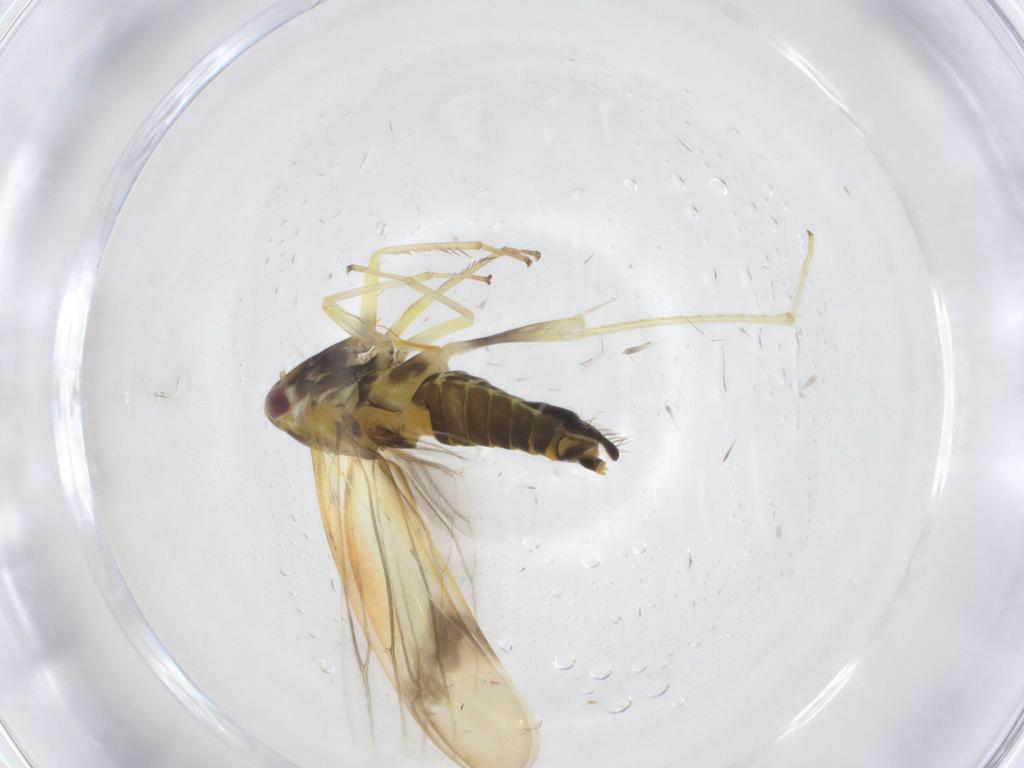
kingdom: Animalia
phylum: Arthropoda
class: Insecta
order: Hemiptera
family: Cicadellidae
